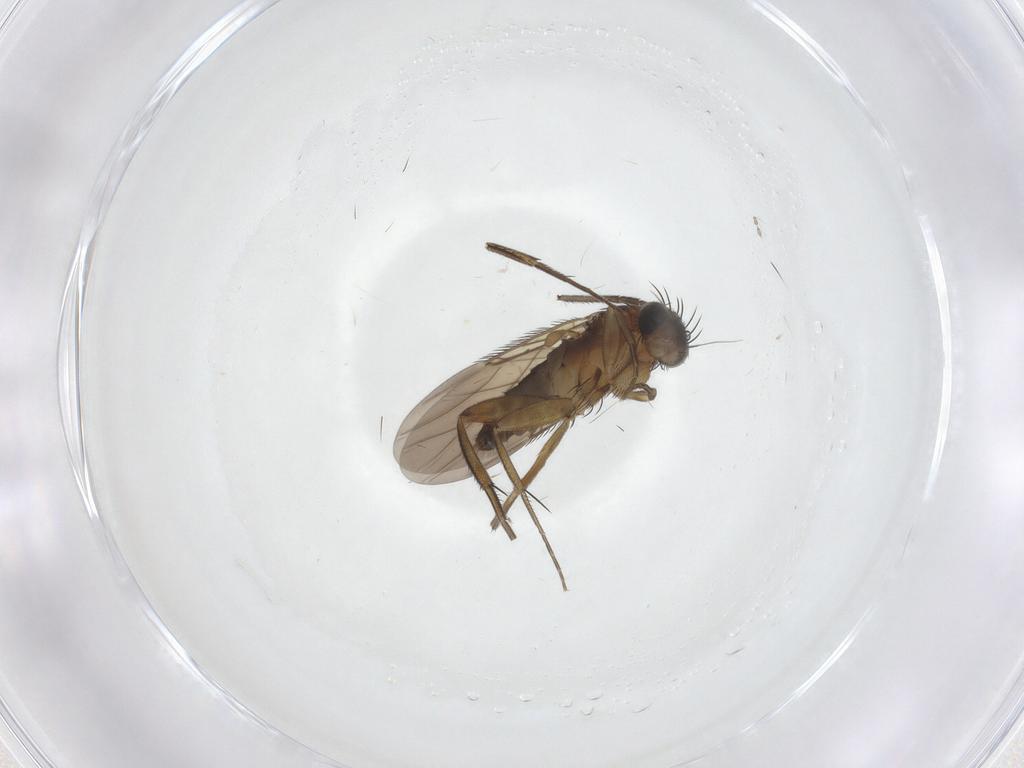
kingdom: Animalia
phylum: Arthropoda
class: Insecta
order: Diptera
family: Phoridae
